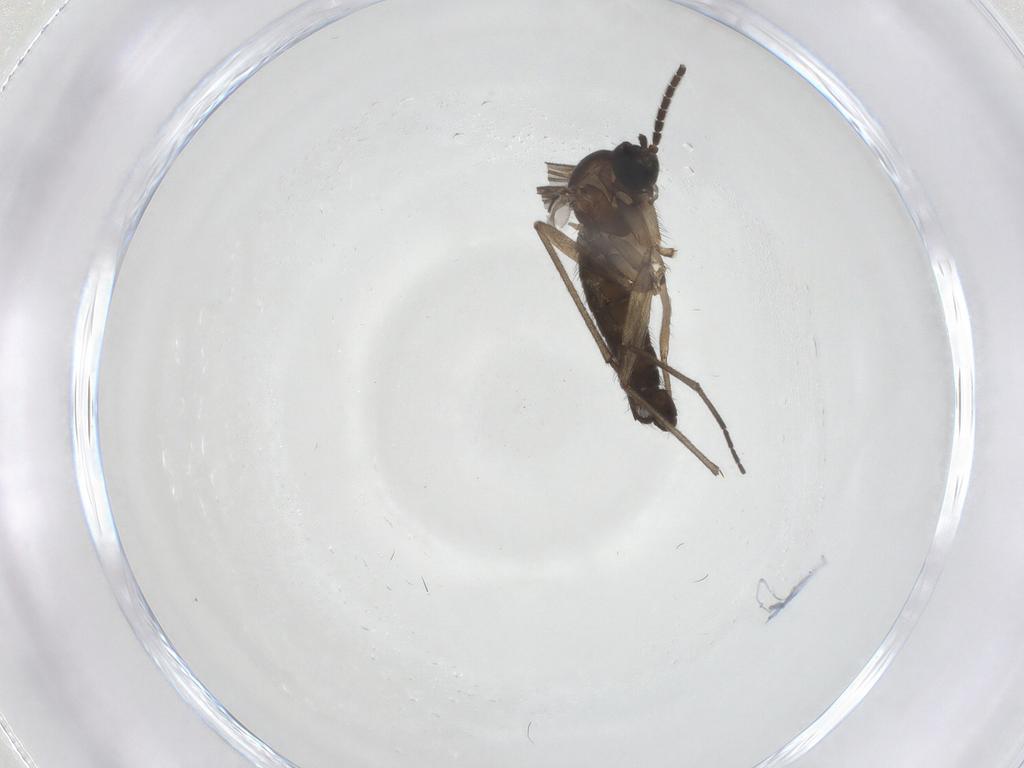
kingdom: Animalia
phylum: Arthropoda
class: Insecta
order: Diptera
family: Sciaridae
